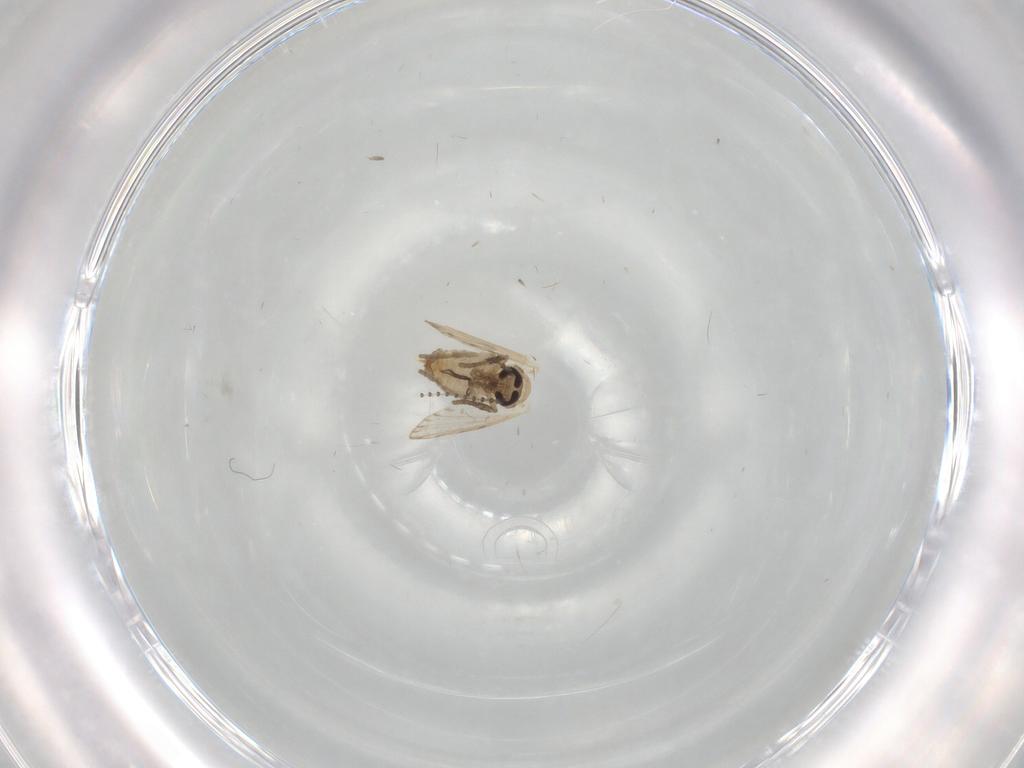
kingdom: Animalia
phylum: Arthropoda
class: Insecta
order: Diptera
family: Psychodidae
